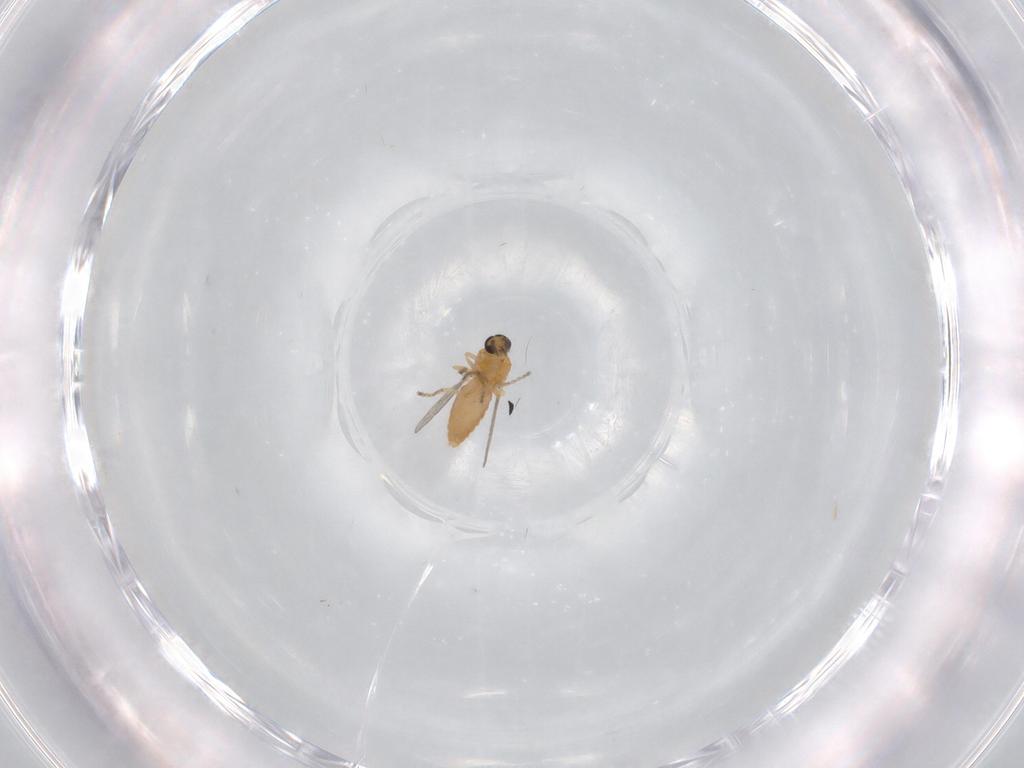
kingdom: Animalia
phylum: Arthropoda
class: Insecta
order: Diptera
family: Ceratopogonidae
